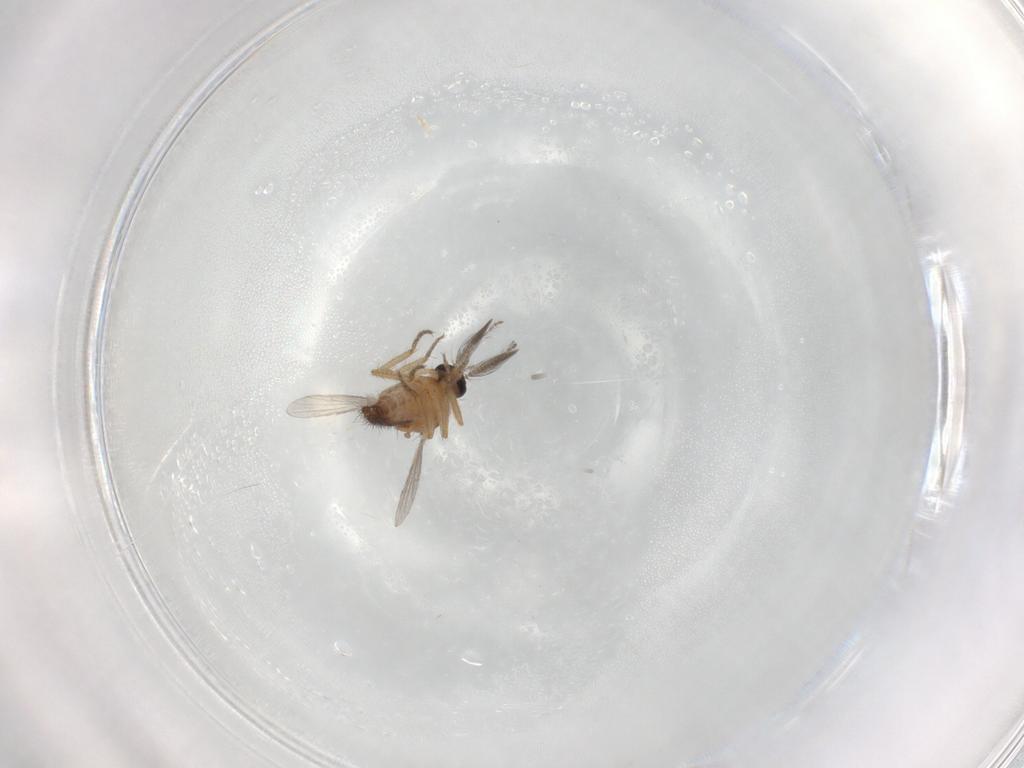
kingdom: Animalia
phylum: Arthropoda
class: Insecta
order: Diptera
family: Ceratopogonidae
